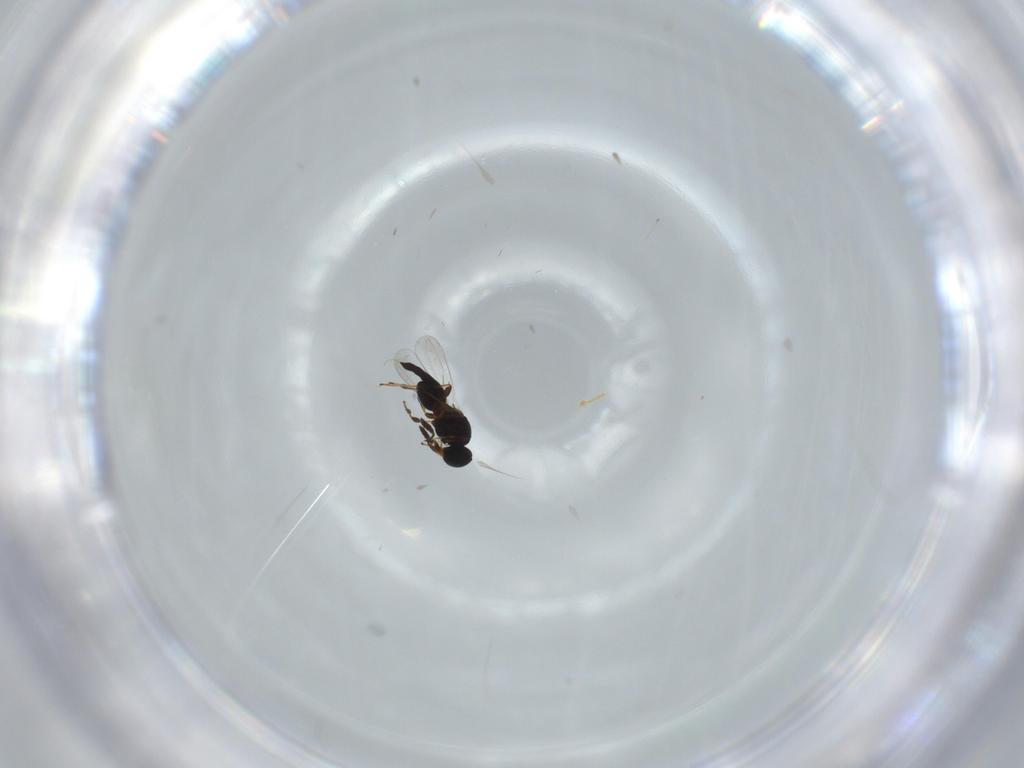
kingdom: Animalia
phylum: Arthropoda
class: Insecta
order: Hymenoptera
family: Platygastridae
